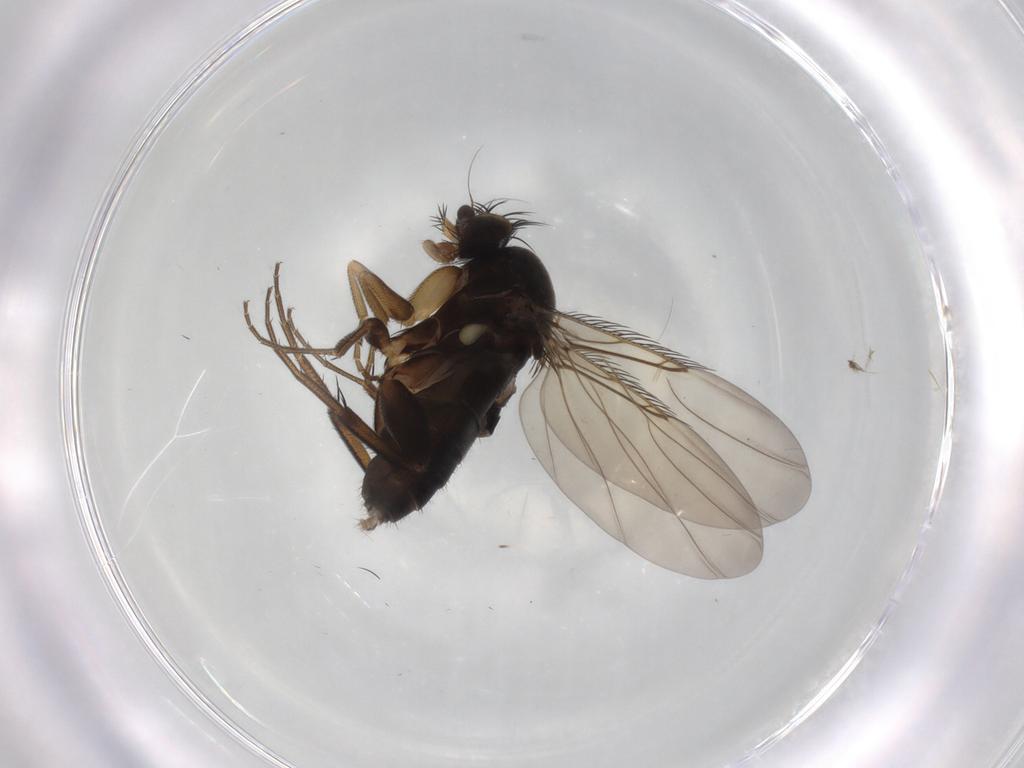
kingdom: Animalia
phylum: Arthropoda
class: Insecta
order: Diptera
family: Phoridae
